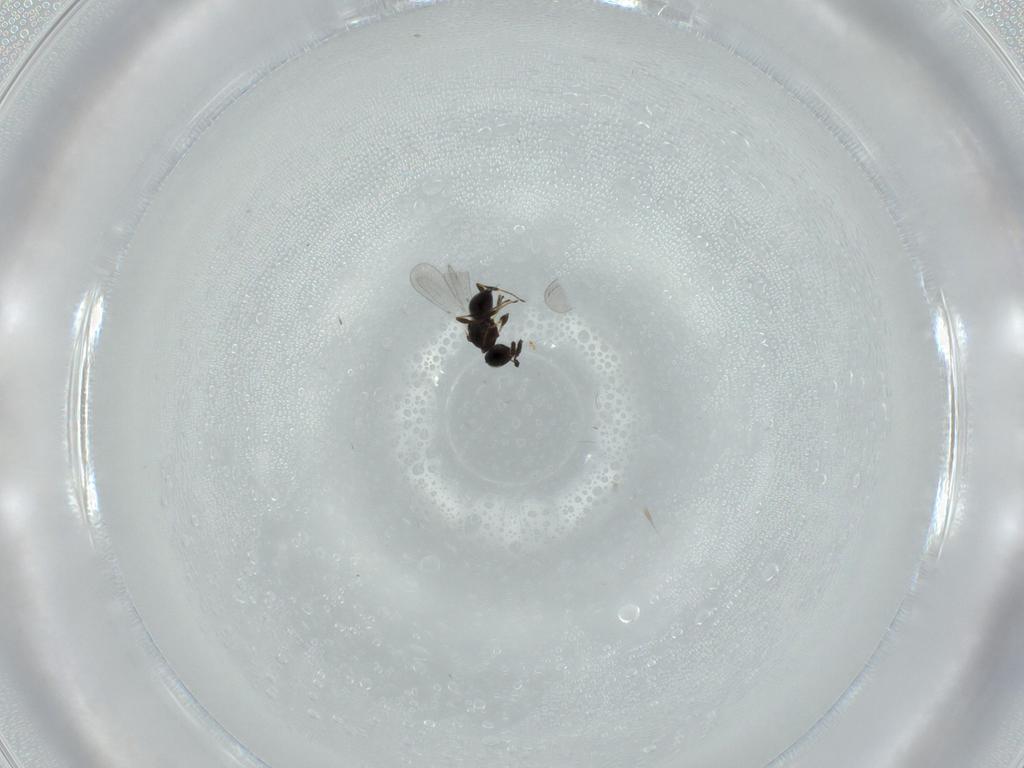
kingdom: Animalia
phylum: Arthropoda
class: Insecta
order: Hymenoptera
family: Platygastridae
